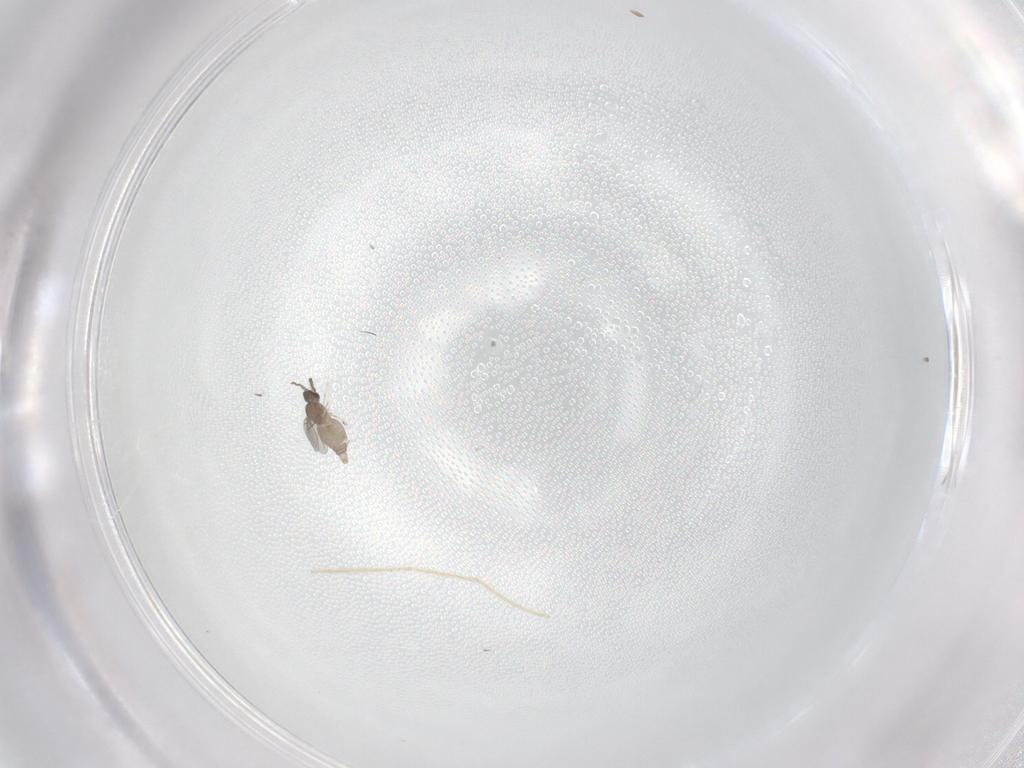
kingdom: Animalia
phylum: Arthropoda
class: Insecta
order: Diptera
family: Cecidomyiidae
